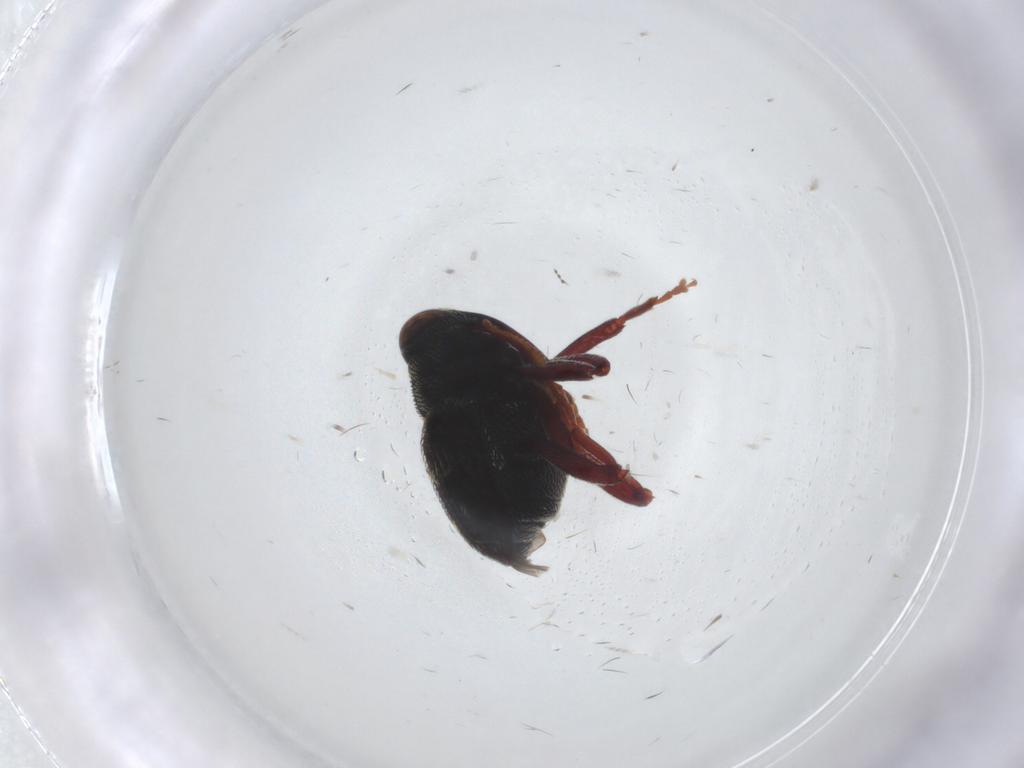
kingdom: Animalia
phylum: Arthropoda
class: Insecta
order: Coleoptera
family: Curculionidae
